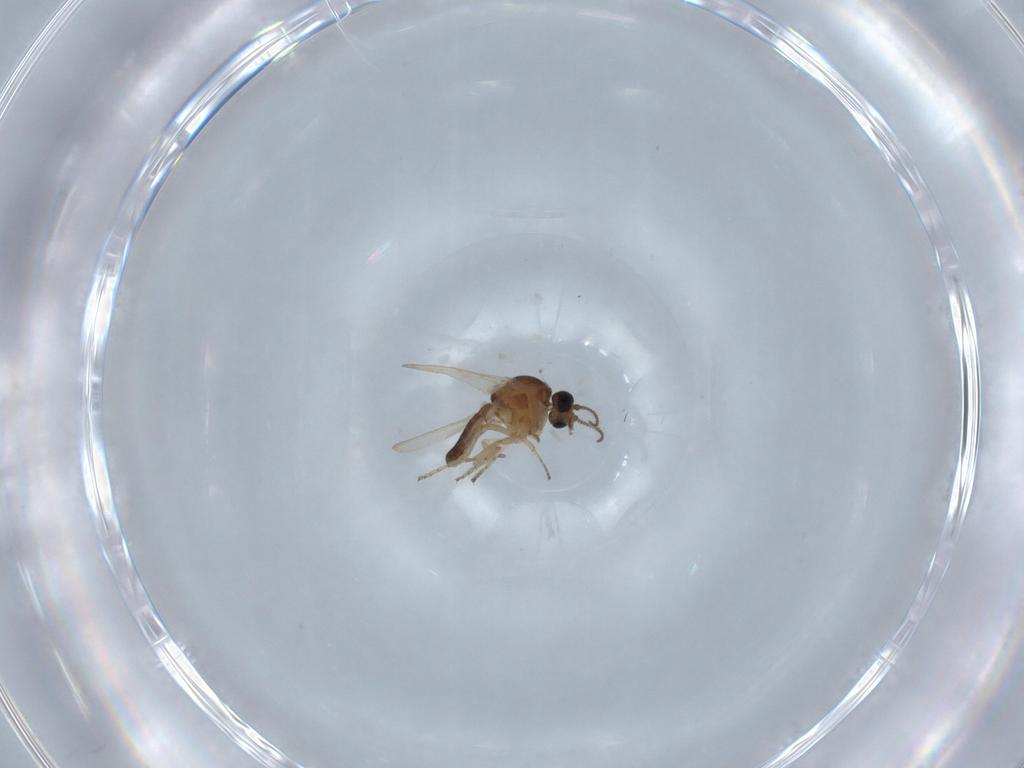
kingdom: Animalia
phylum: Arthropoda
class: Insecta
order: Diptera
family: Ceratopogonidae
